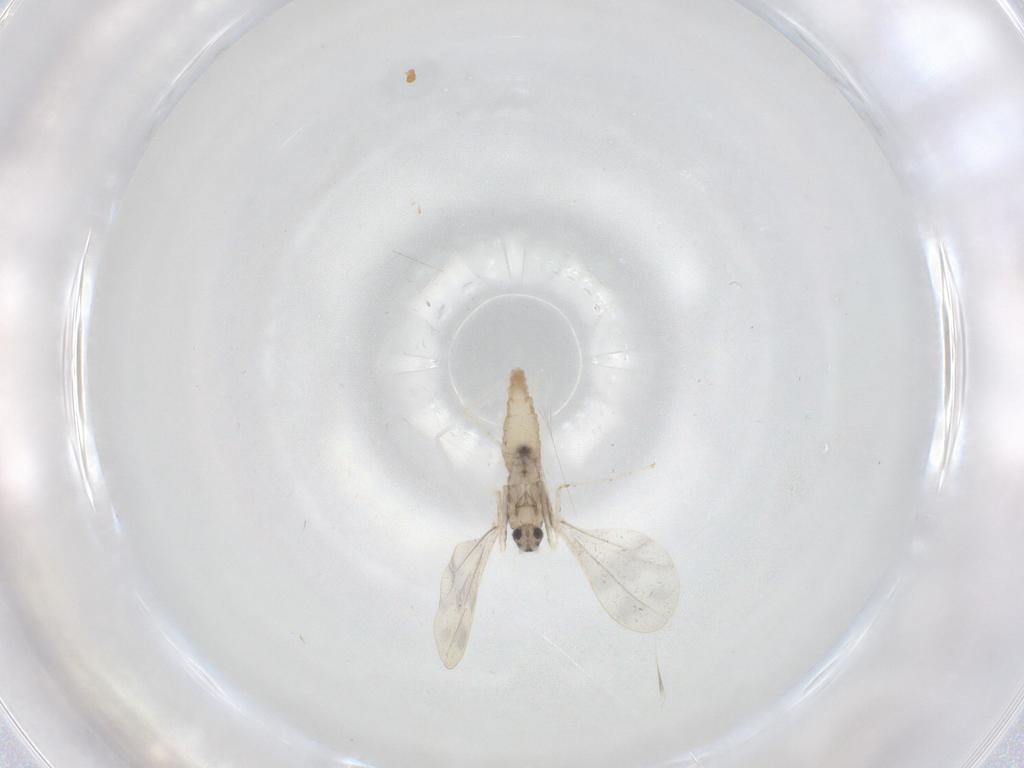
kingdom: Animalia
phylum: Arthropoda
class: Insecta
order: Diptera
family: Cecidomyiidae
